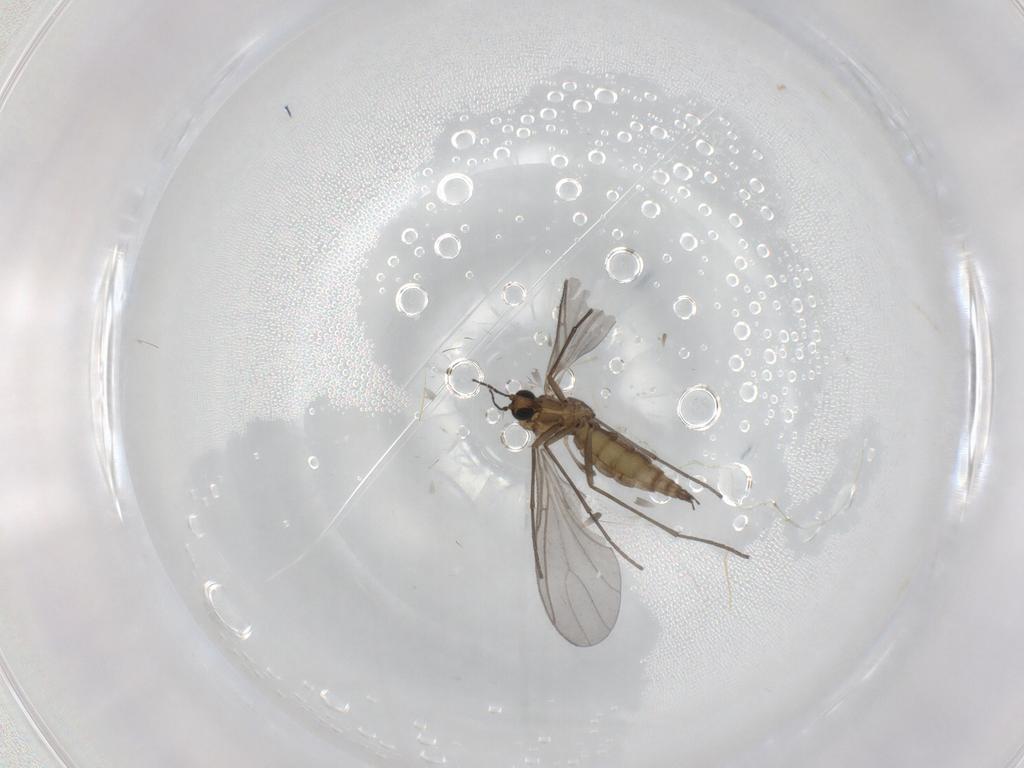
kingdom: Animalia
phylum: Arthropoda
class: Insecta
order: Diptera
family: Sciaridae
